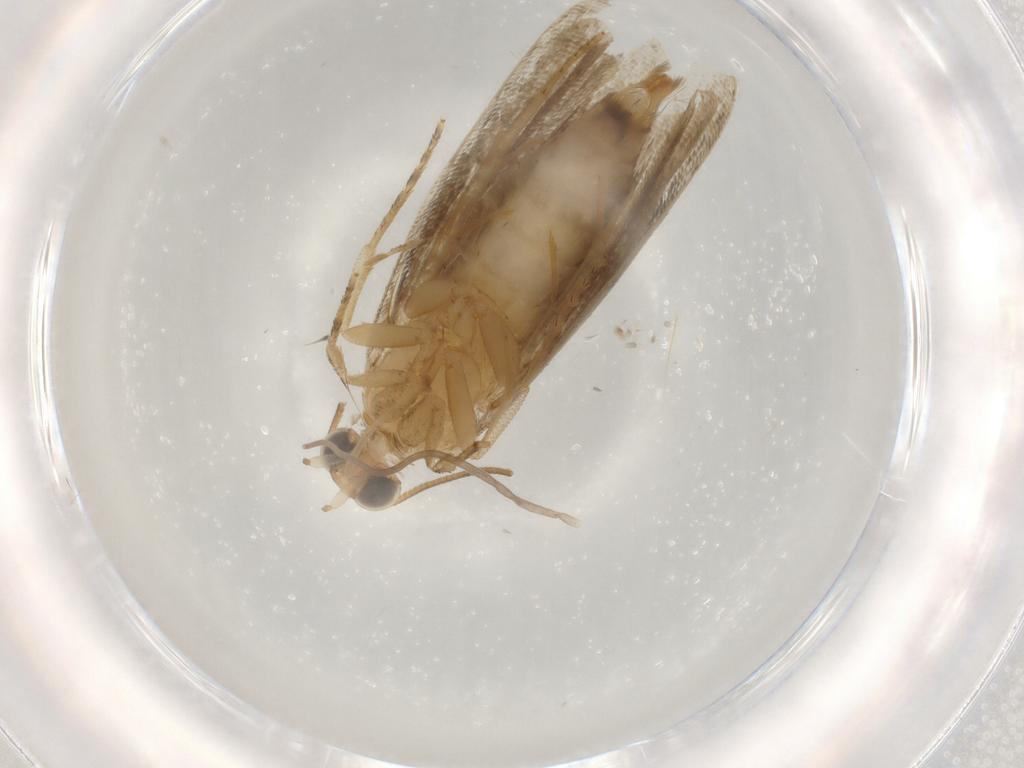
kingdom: Animalia
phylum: Arthropoda
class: Insecta
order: Lepidoptera
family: Tortricidae
